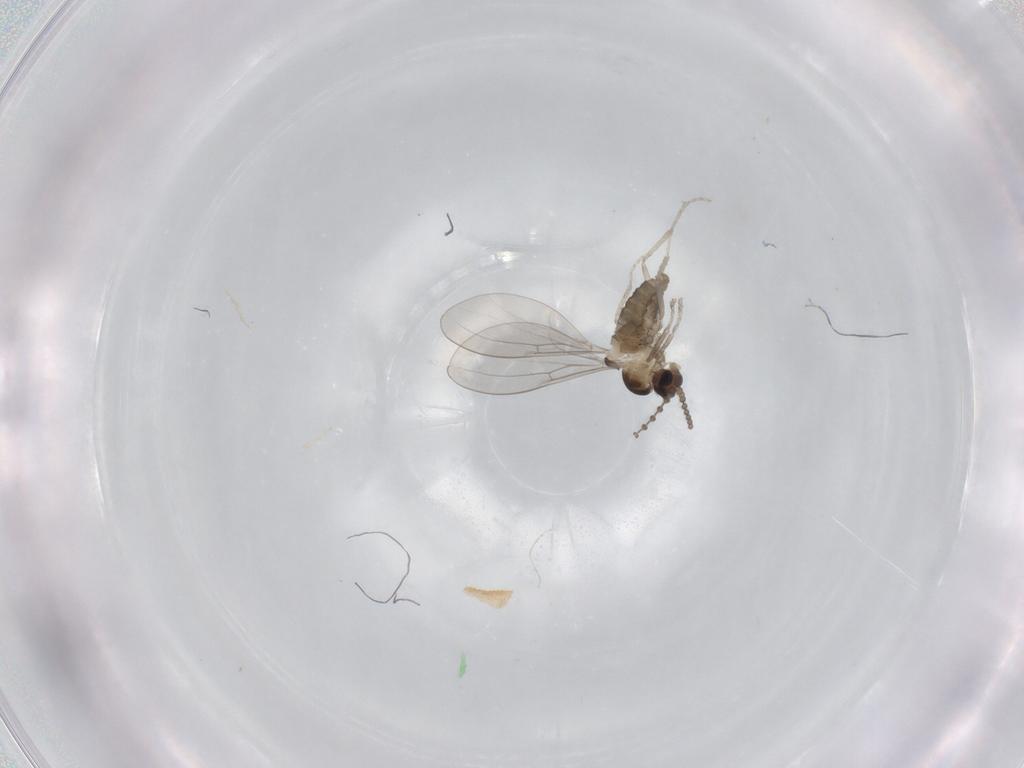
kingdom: Animalia
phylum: Arthropoda
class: Insecta
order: Diptera
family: Cecidomyiidae
